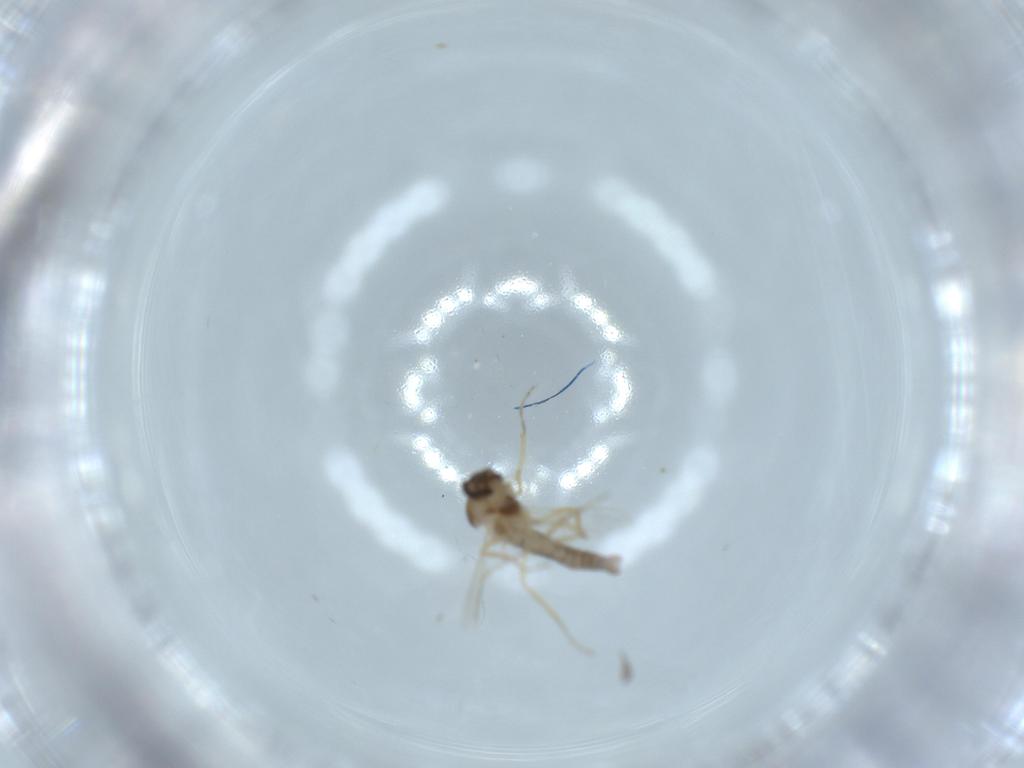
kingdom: Animalia
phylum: Arthropoda
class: Insecta
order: Diptera
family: Ceratopogonidae
